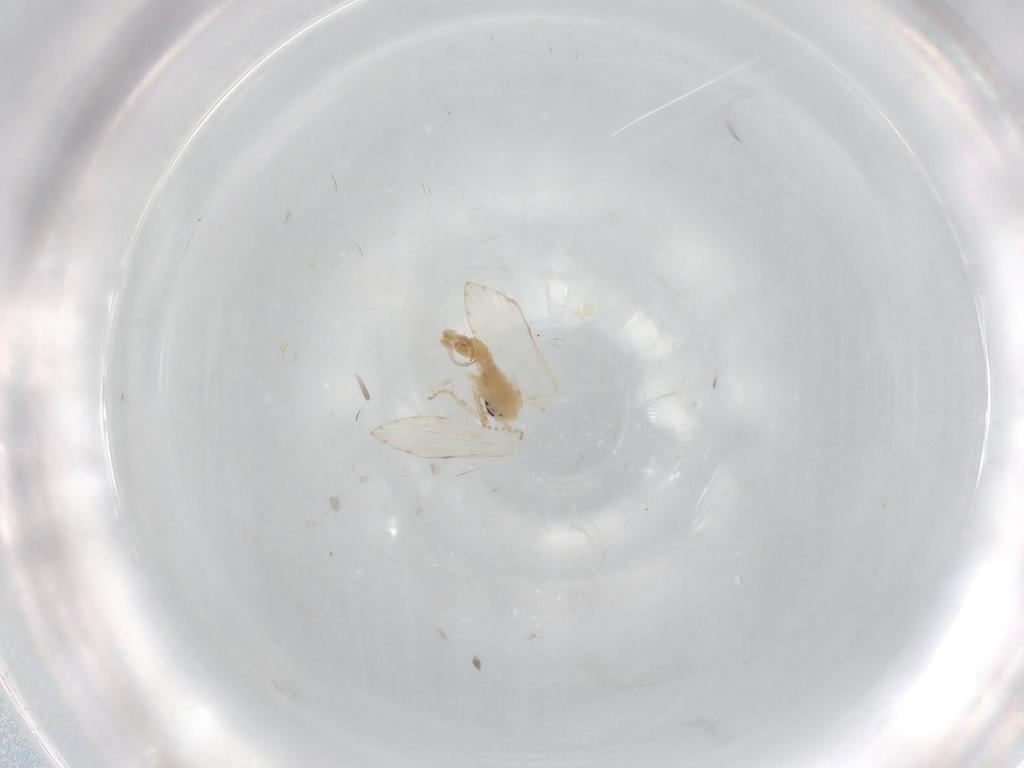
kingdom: Animalia
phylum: Arthropoda
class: Insecta
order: Diptera
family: Psychodidae
